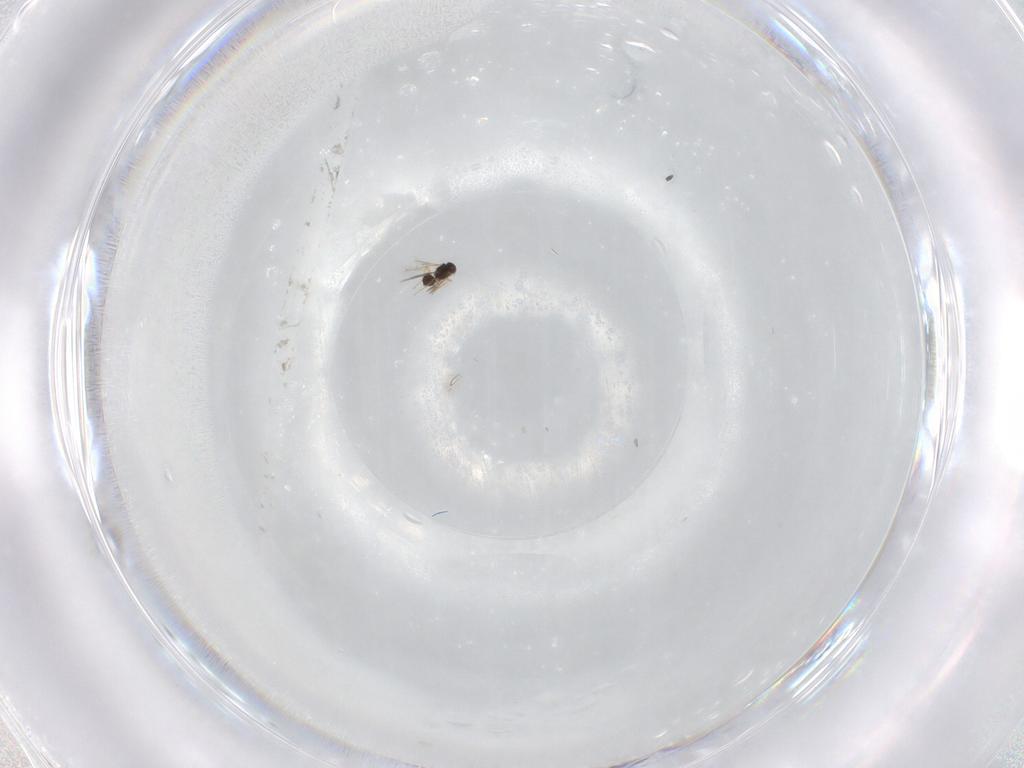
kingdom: Animalia
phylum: Arthropoda
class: Insecta
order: Hymenoptera
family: Mymaridae
